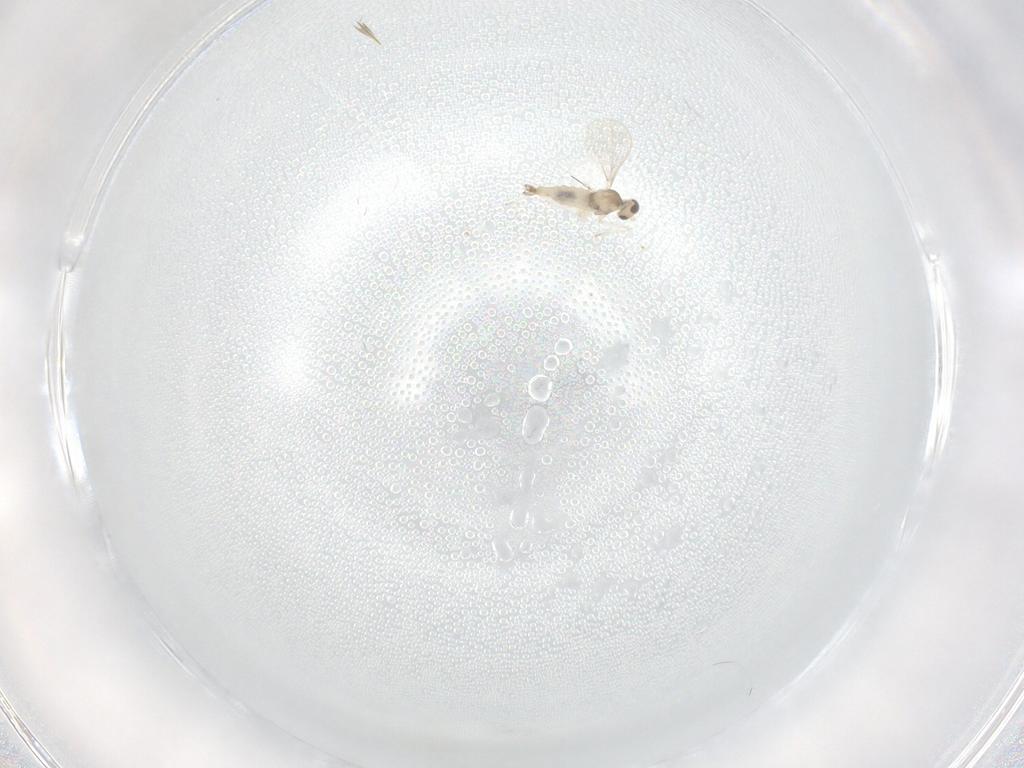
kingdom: Animalia
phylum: Arthropoda
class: Insecta
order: Diptera
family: Cecidomyiidae
